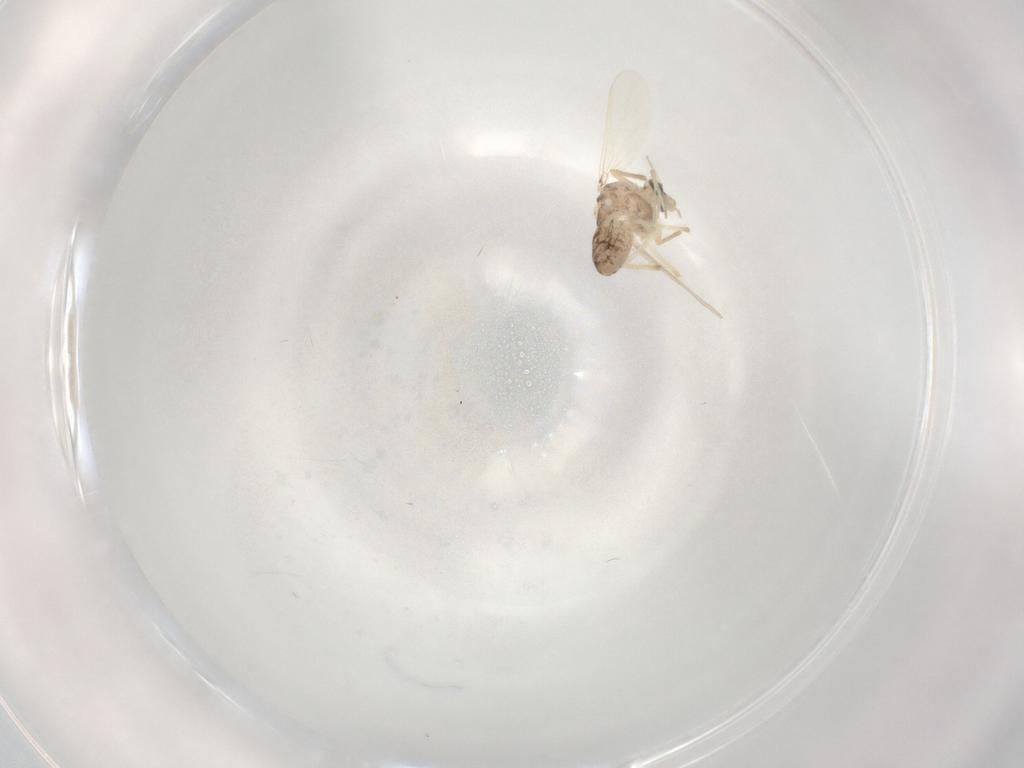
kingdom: Animalia
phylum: Arthropoda
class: Insecta
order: Diptera
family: Chironomidae
